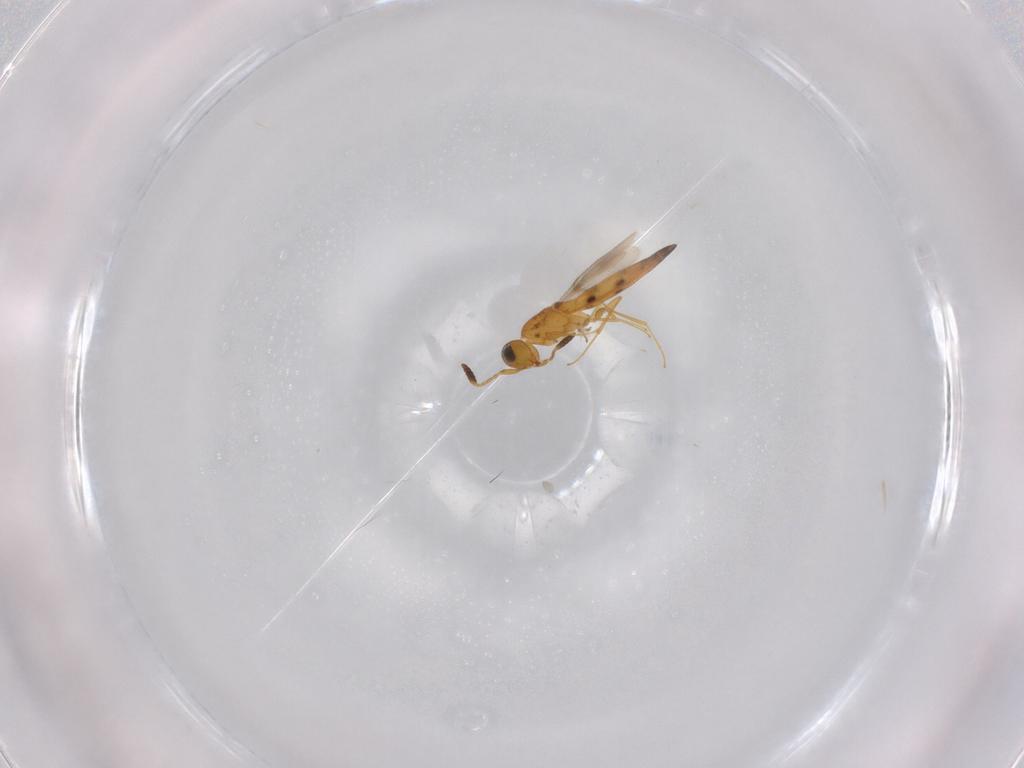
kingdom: Animalia
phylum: Arthropoda
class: Insecta
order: Hymenoptera
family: Scelionidae
